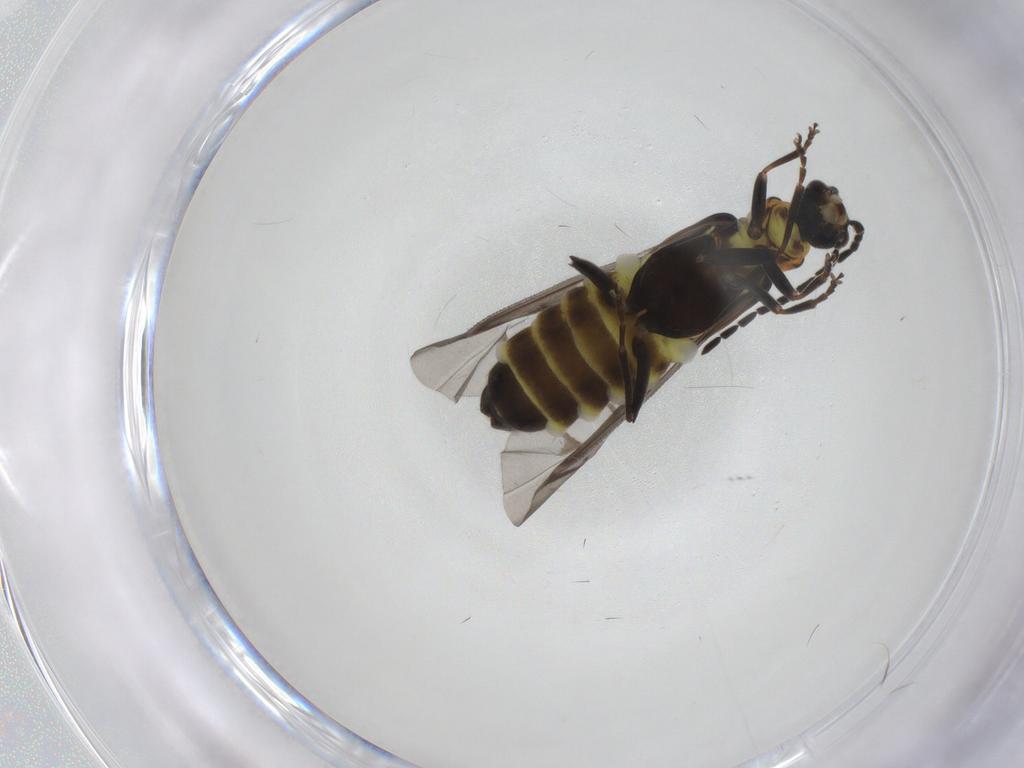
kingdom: Animalia
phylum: Arthropoda
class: Insecta
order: Coleoptera
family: Cantharidae
